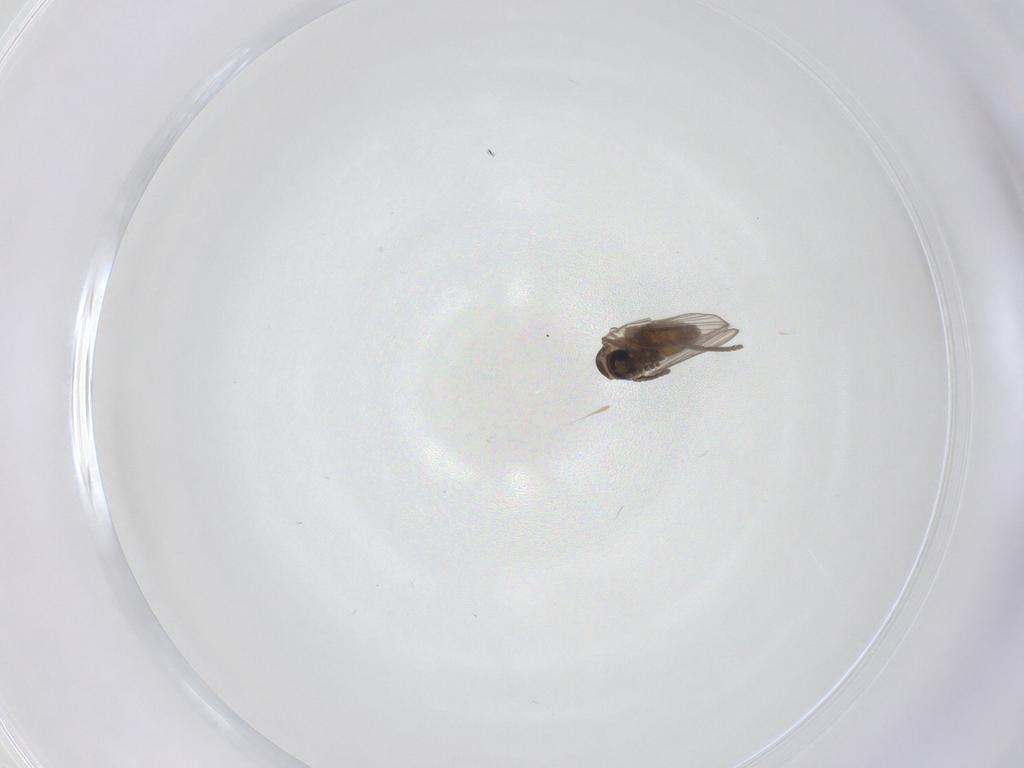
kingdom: Animalia
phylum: Arthropoda
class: Insecta
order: Diptera
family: Psychodidae
